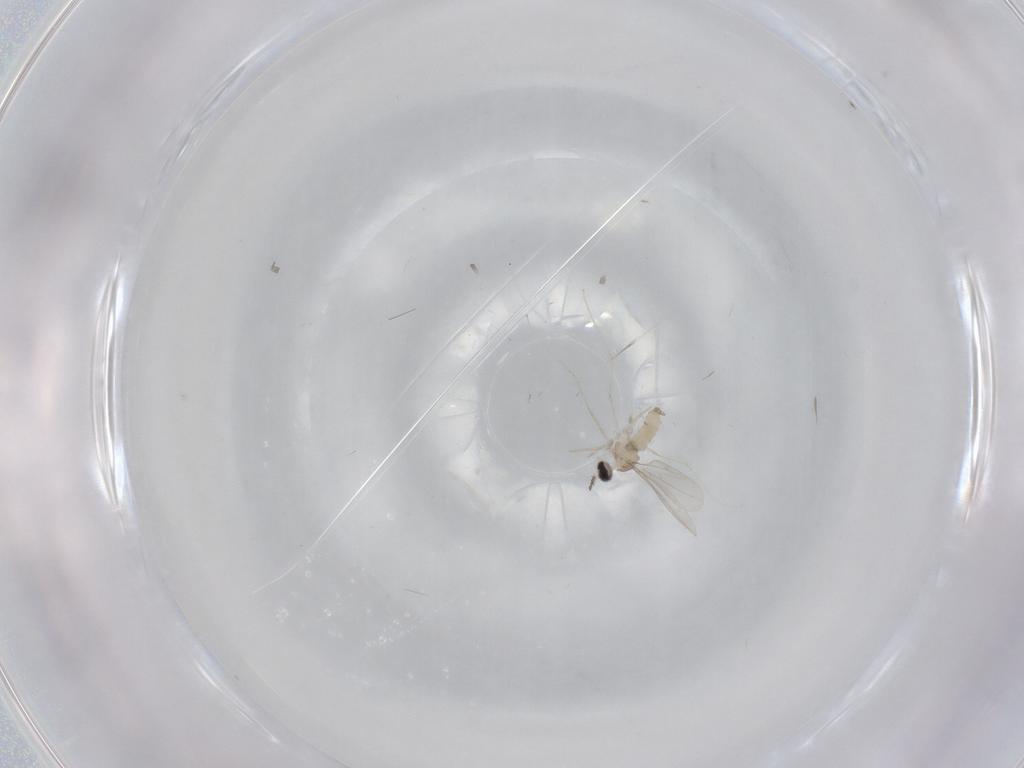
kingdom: Animalia
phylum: Arthropoda
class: Insecta
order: Diptera
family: Cecidomyiidae
